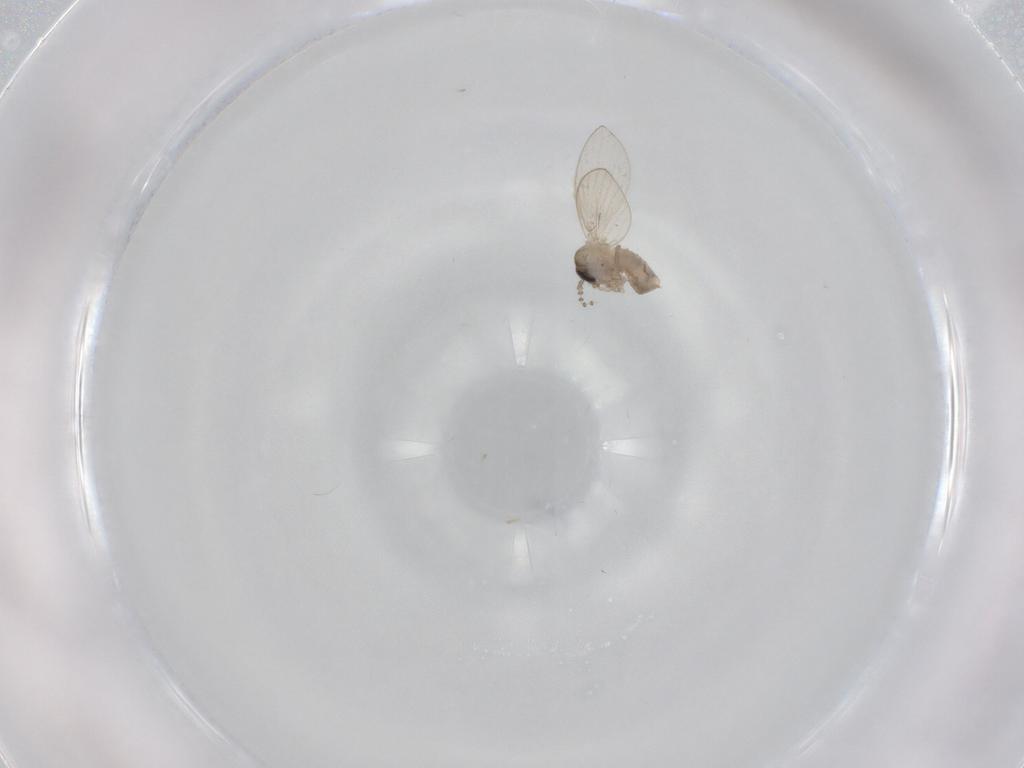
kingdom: Animalia
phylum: Arthropoda
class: Insecta
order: Diptera
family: Psychodidae
